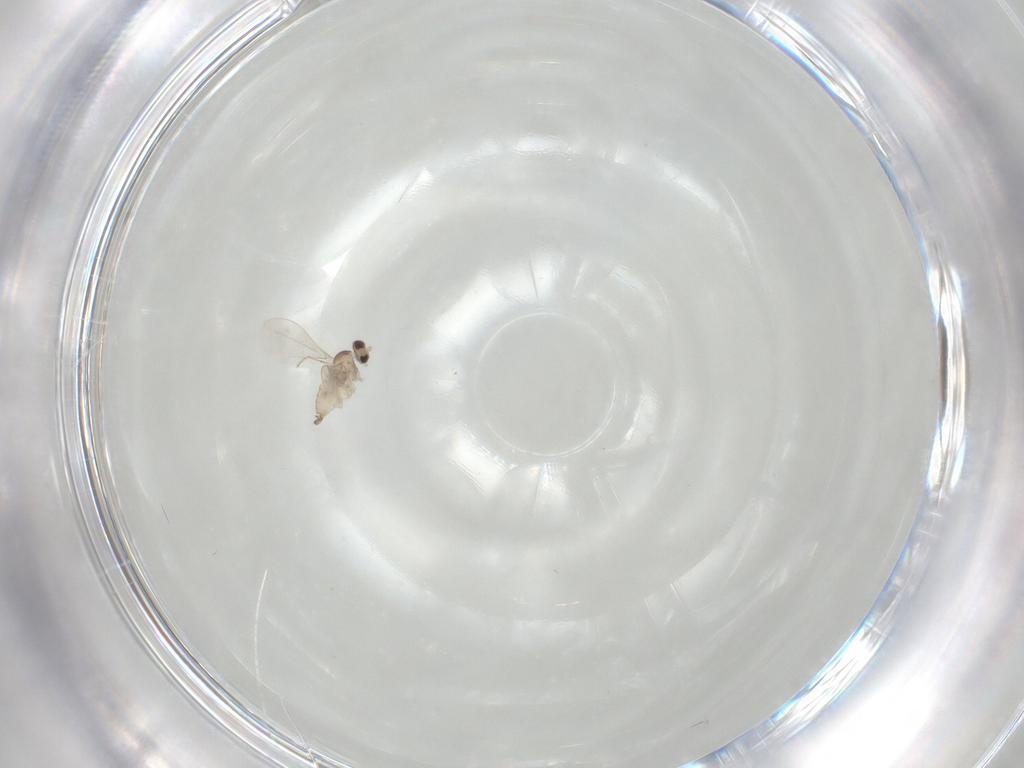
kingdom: Animalia
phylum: Arthropoda
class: Insecta
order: Diptera
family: Cecidomyiidae
